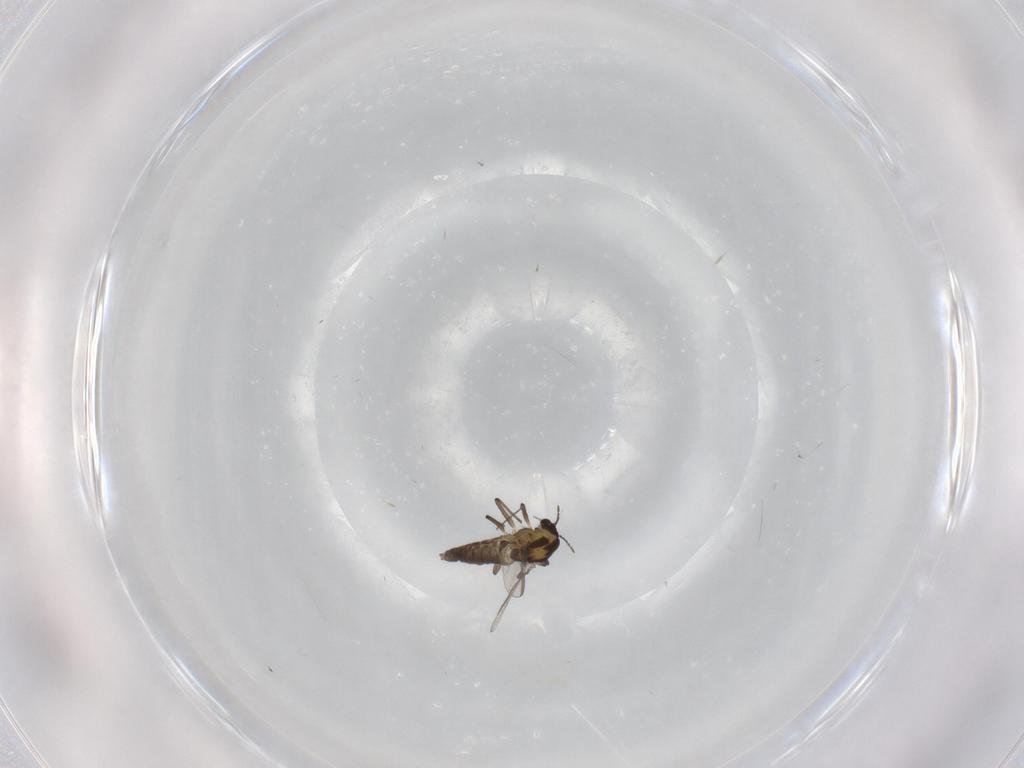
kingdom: Animalia
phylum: Arthropoda
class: Insecta
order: Diptera
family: Chironomidae
